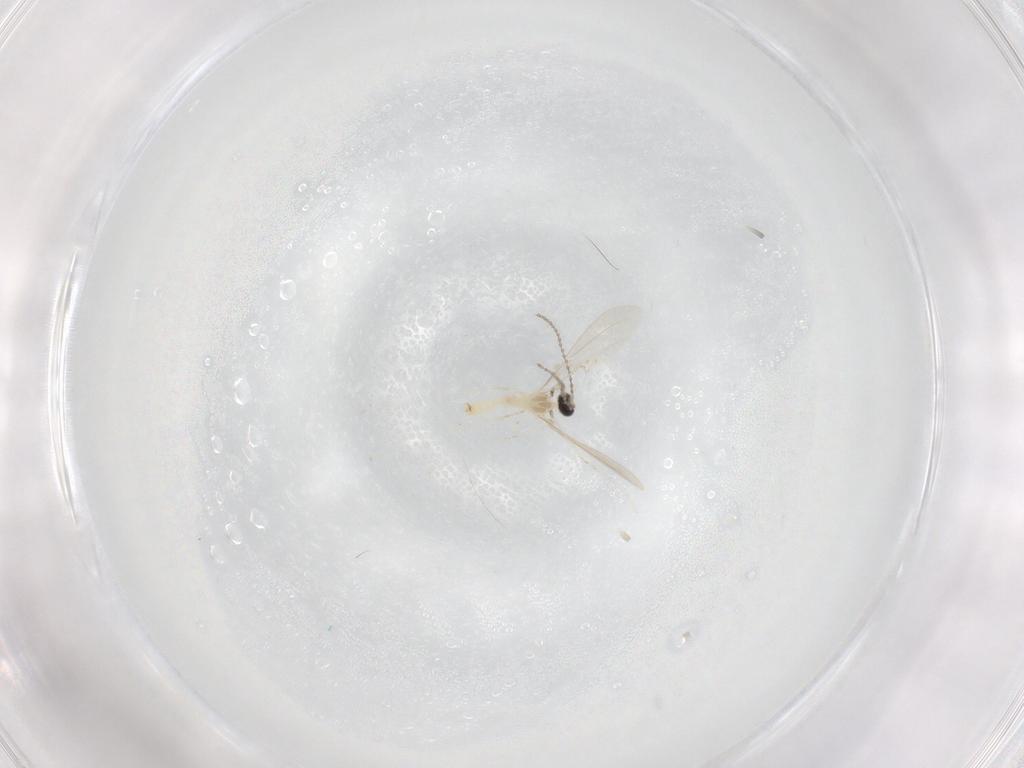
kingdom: Animalia
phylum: Arthropoda
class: Insecta
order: Diptera
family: Cecidomyiidae
